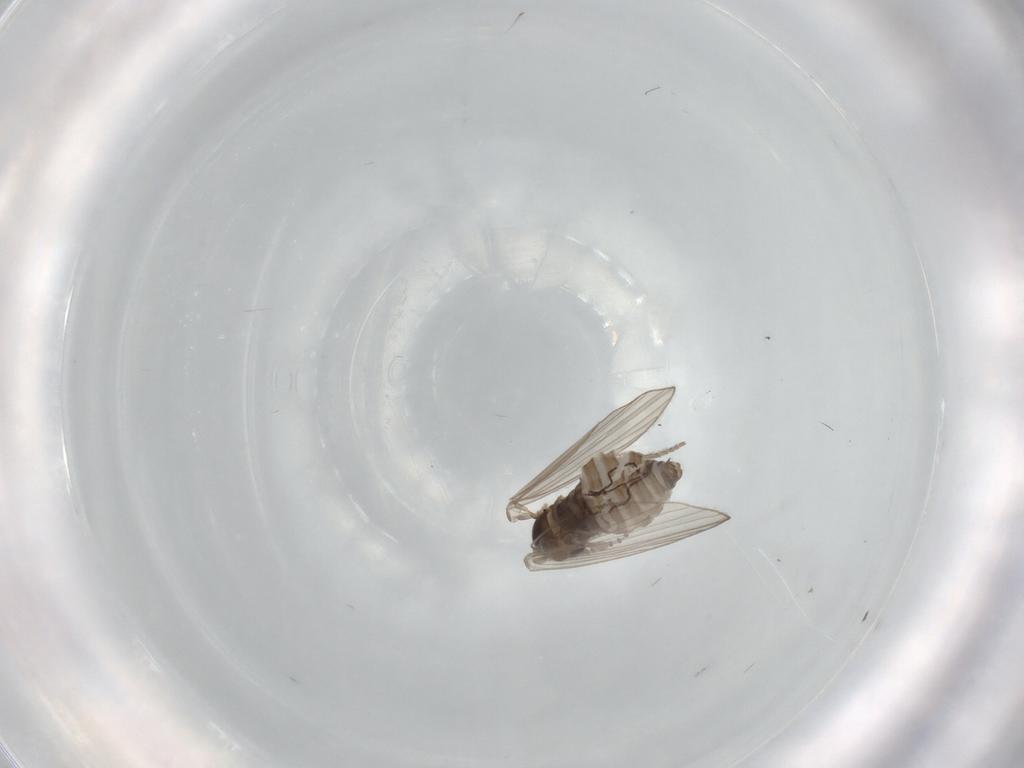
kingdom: Animalia
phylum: Arthropoda
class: Insecta
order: Diptera
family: Psychodidae
